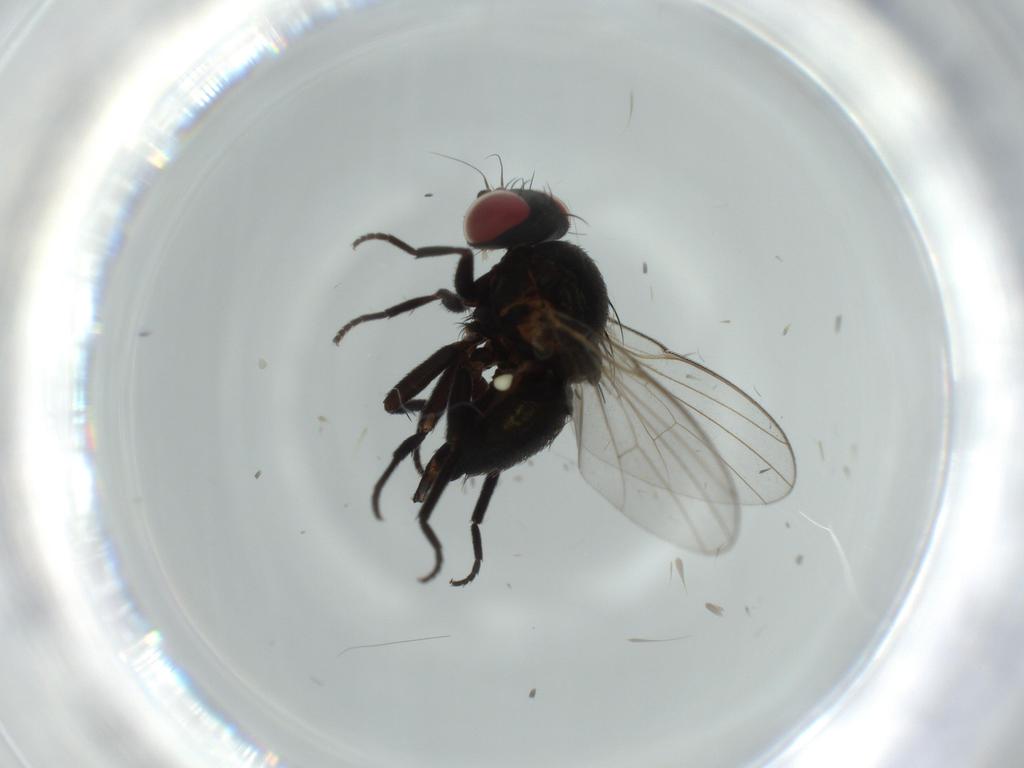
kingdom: Animalia
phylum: Arthropoda
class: Insecta
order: Diptera
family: Agromyzidae
